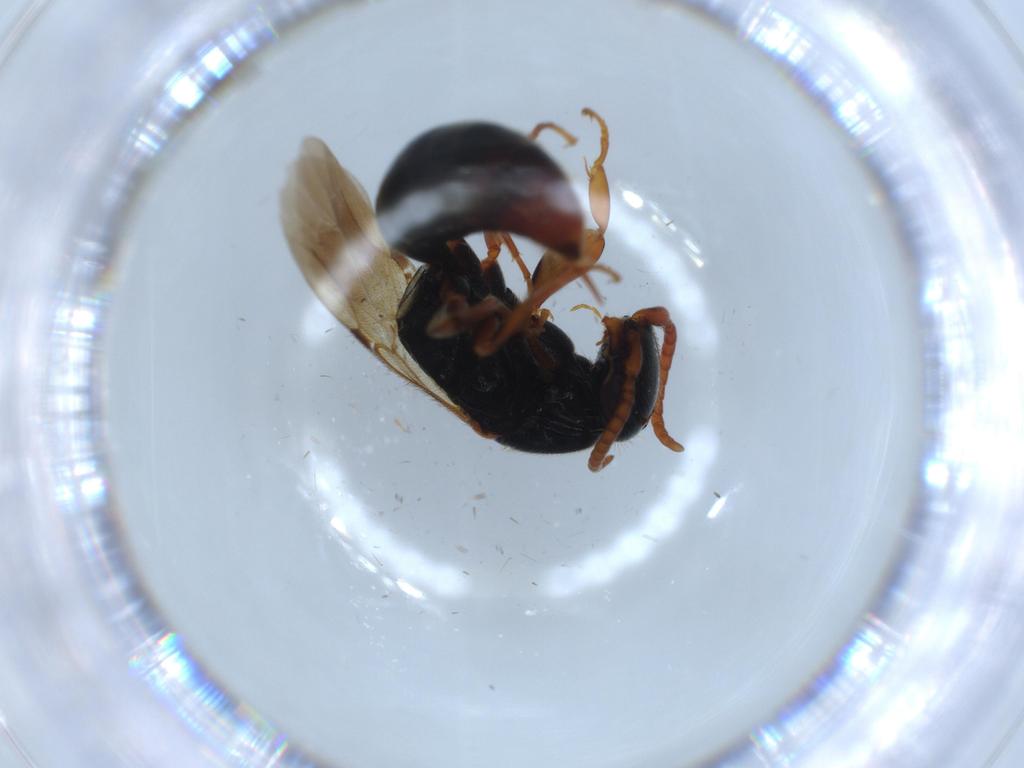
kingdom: Animalia
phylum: Arthropoda
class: Insecta
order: Hymenoptera
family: Bethylidae
